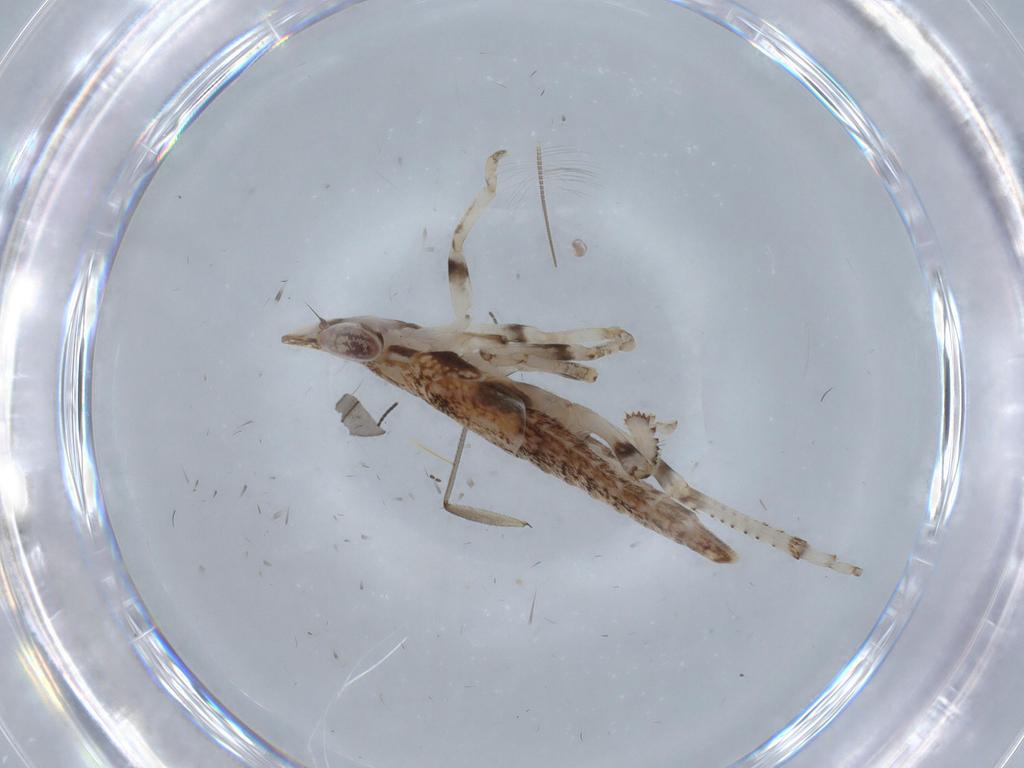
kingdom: Animalia
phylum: Arthropoda
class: Insecta
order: Hemiptera
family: Cicadellidae
